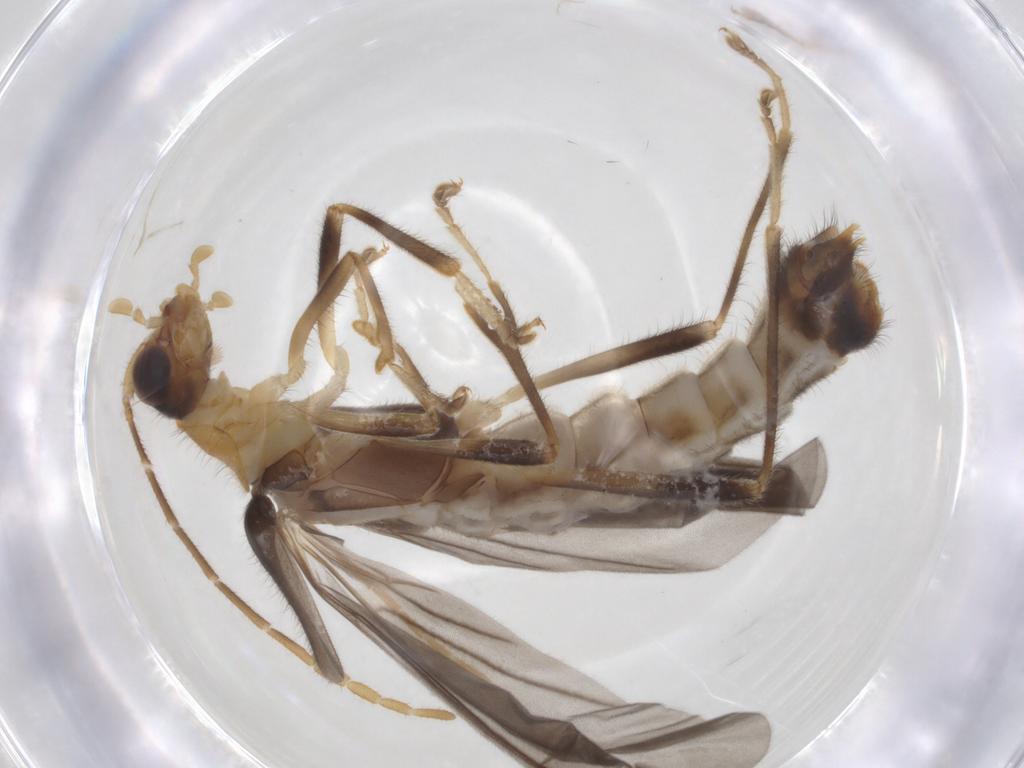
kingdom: Animalia
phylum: Arthropoda
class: Insecta
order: Coleoptera
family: Cantharidae
